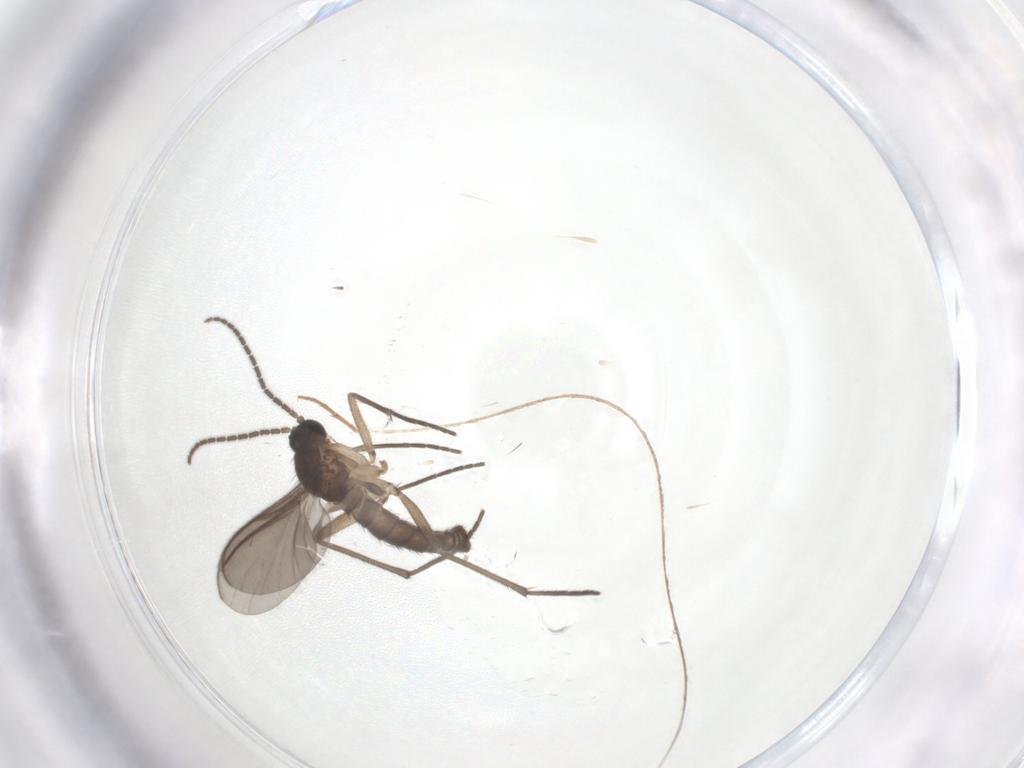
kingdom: Animalia
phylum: Arthropoda
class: Insecta
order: Diptera
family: Sciaridae
